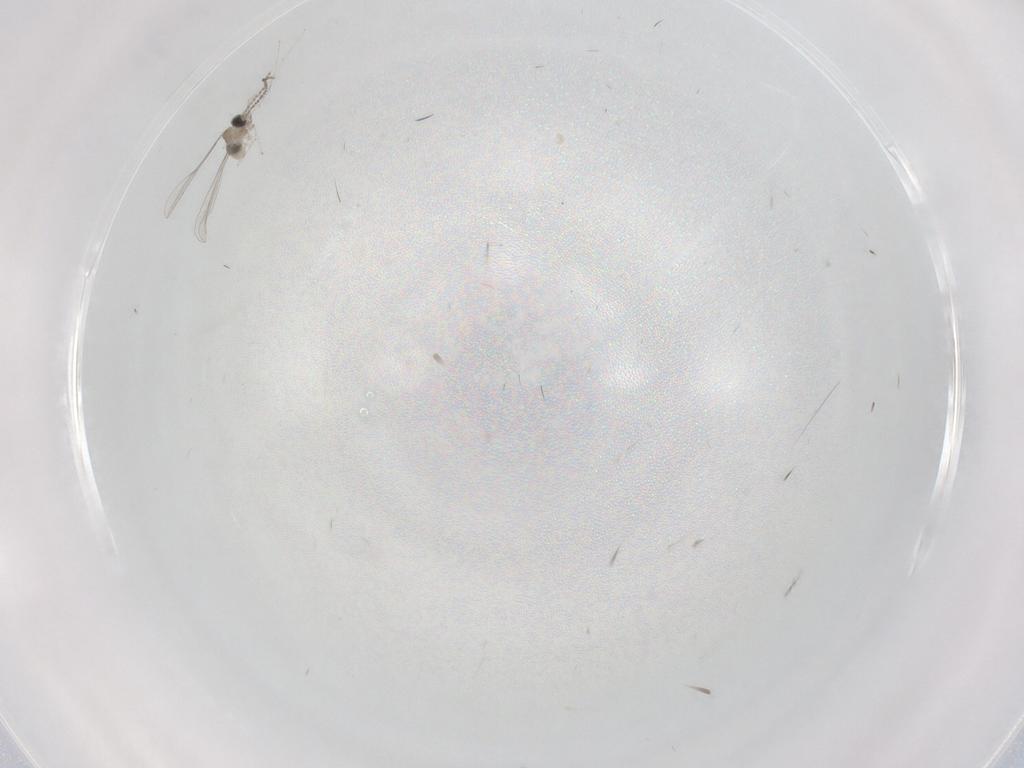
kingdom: Animalia
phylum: Arthropoda
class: Insecta
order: Diptera
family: Cecidomyiidae
